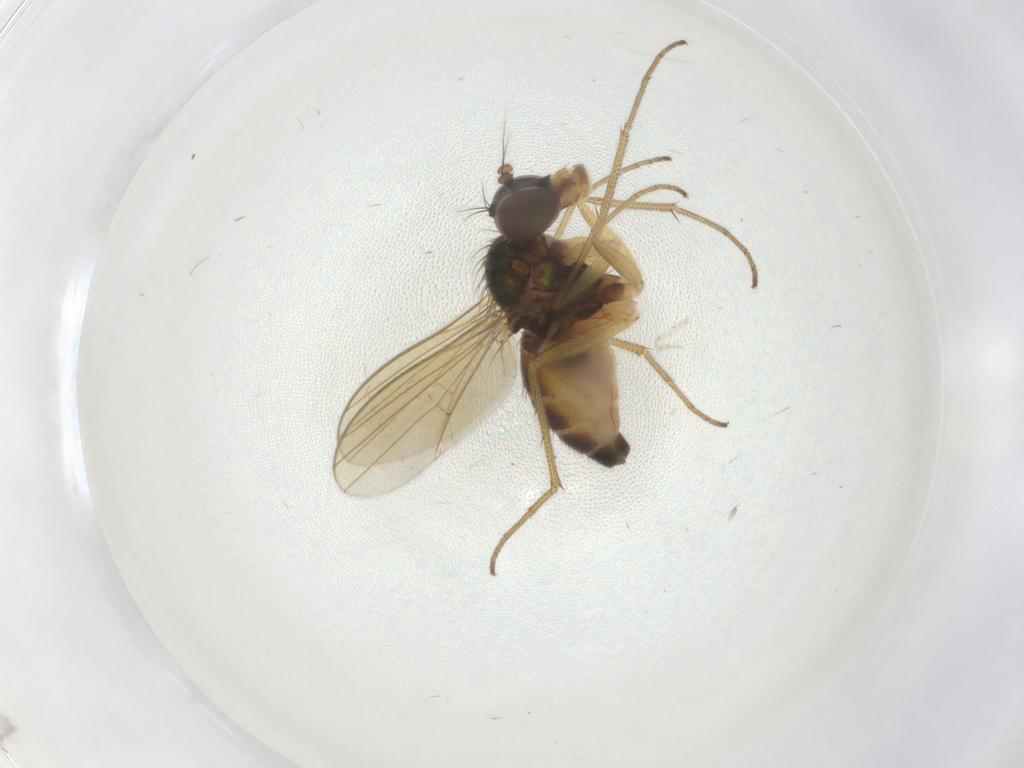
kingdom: Animalia
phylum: Arthropoda
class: Insecta
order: Diptera
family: Dolichopodidae
